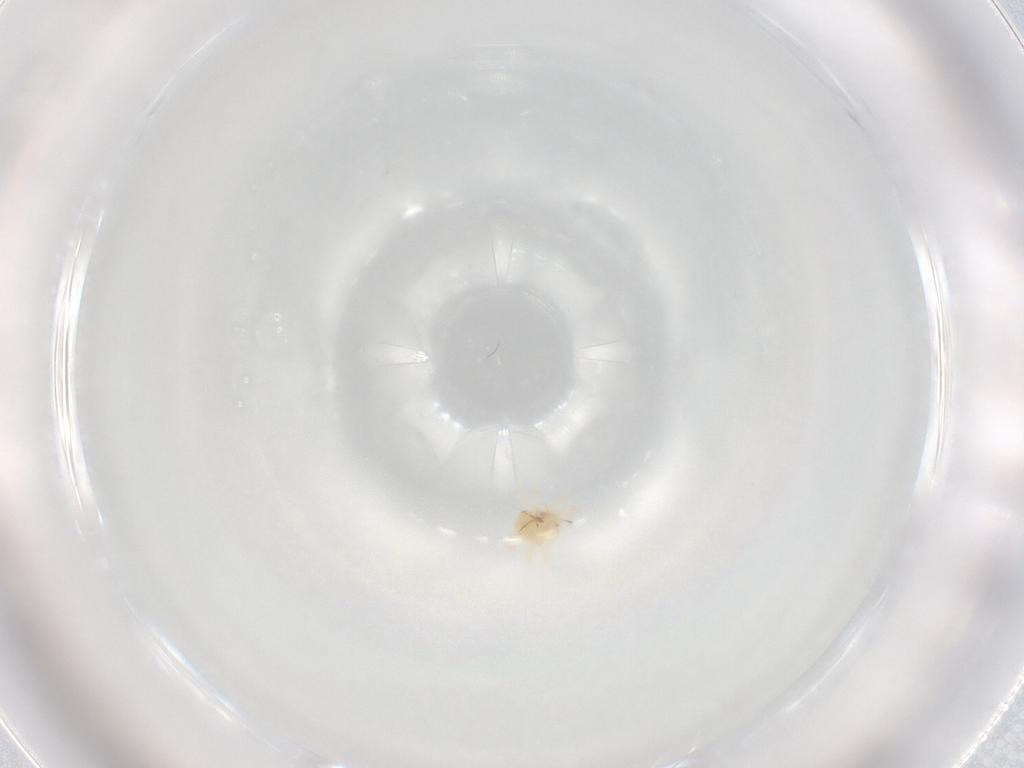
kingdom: Animalia
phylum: Arthropoda
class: Arachnida
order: Trombidiformes
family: Anystidae
